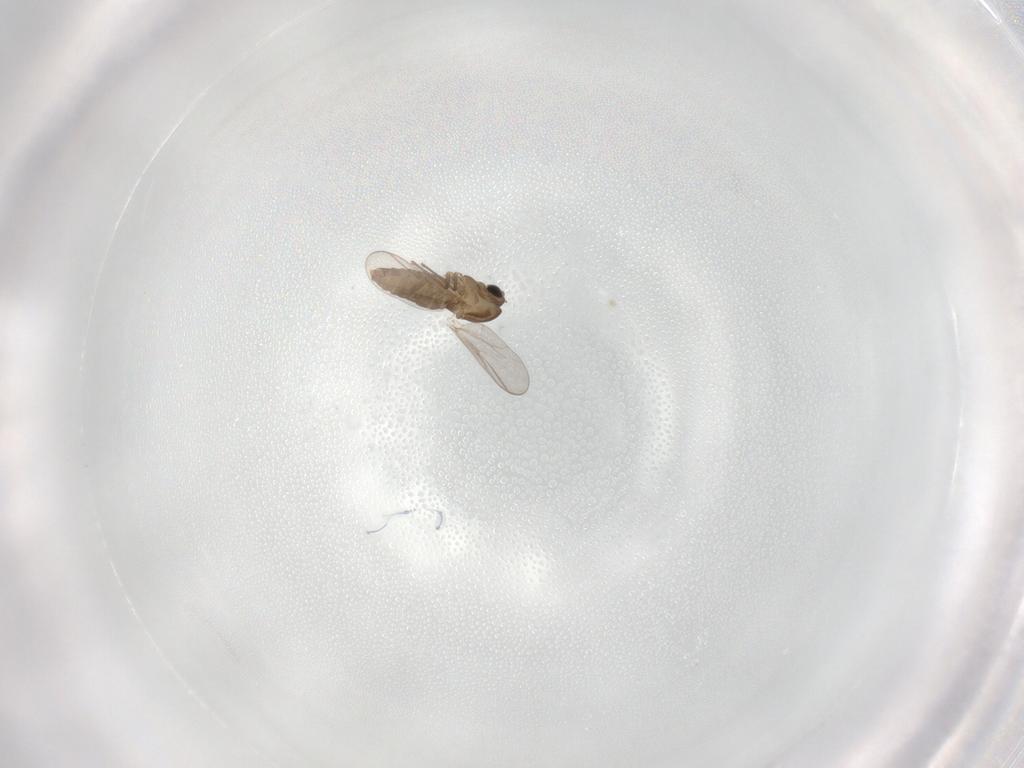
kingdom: Animalia
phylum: Arthropoda
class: Insecta
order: Diptera
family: Chironomidae
